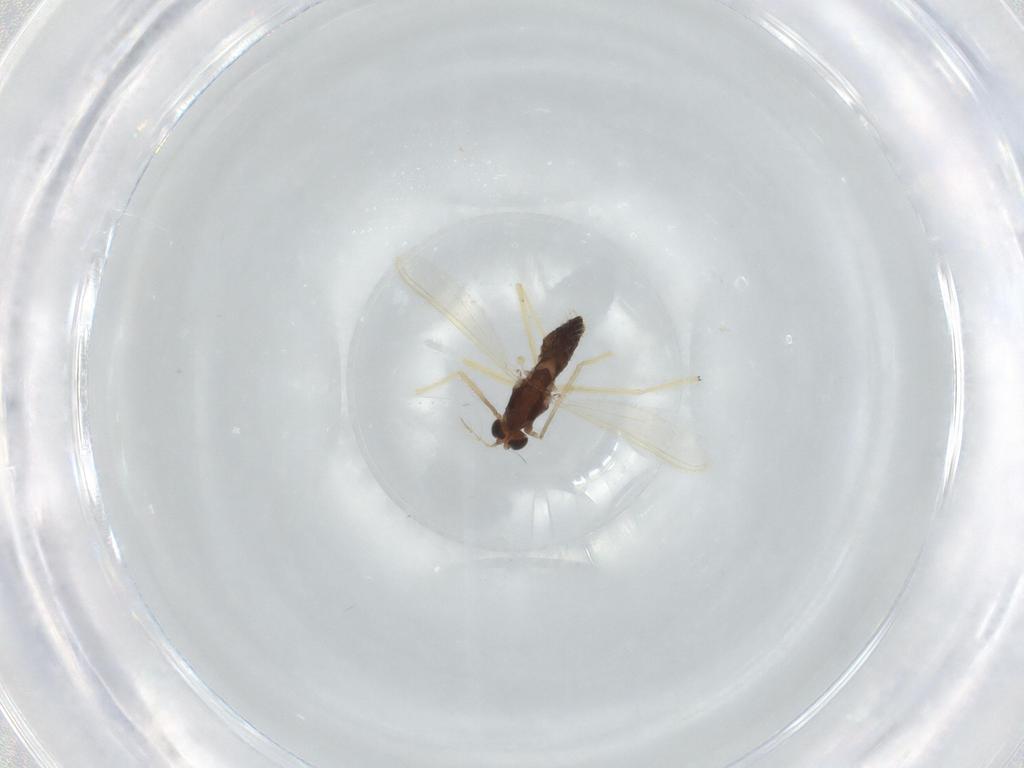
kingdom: Animalia
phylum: Arthropoda
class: Insecta
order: Diptera
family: Chironomidae
